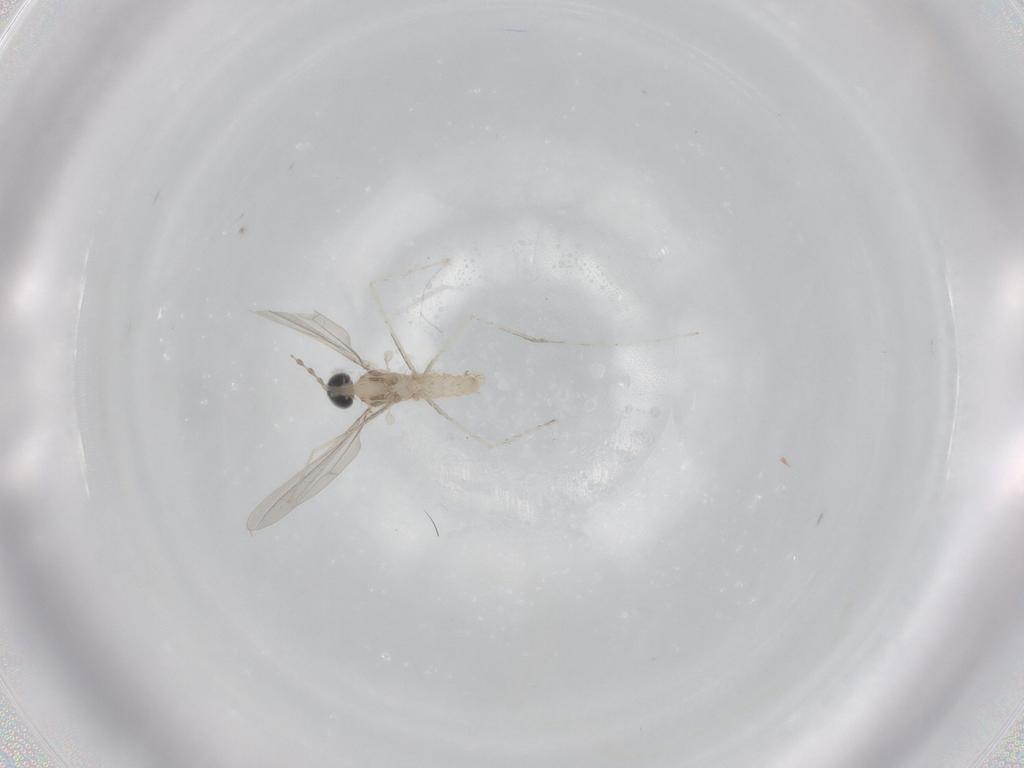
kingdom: Animalia
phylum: Arthropoda
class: Insecta
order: Diptera
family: Cecidomyiidae
